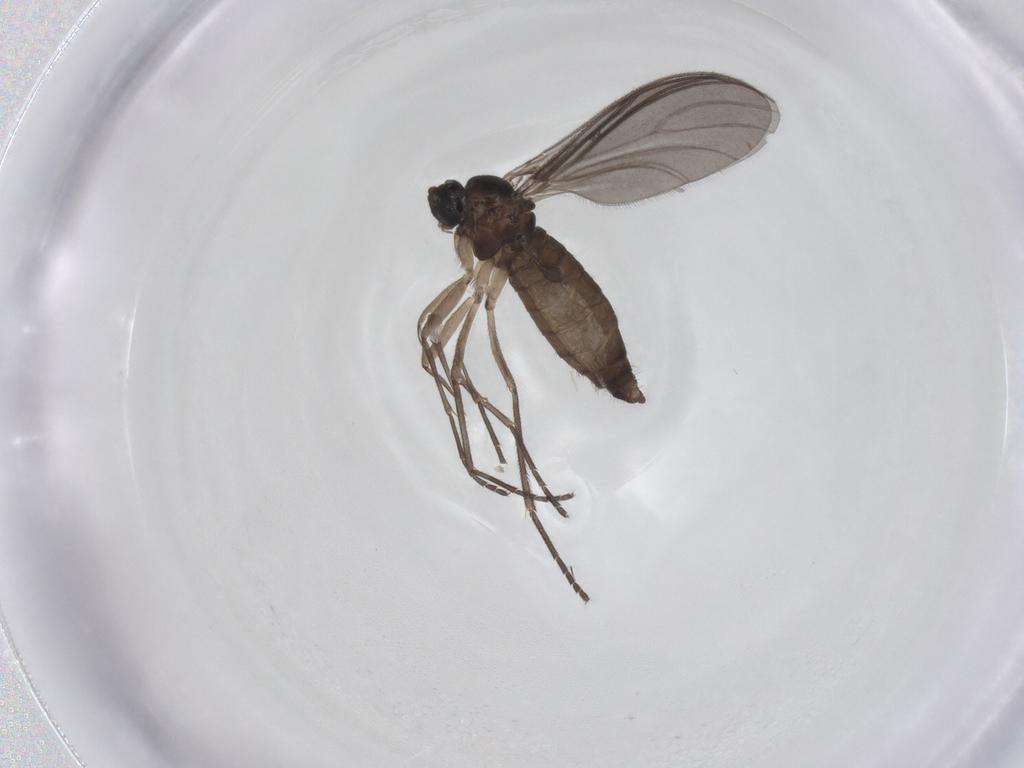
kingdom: Animalia
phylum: Arthropoda
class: Insecta
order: Diptera
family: Sciaridae
